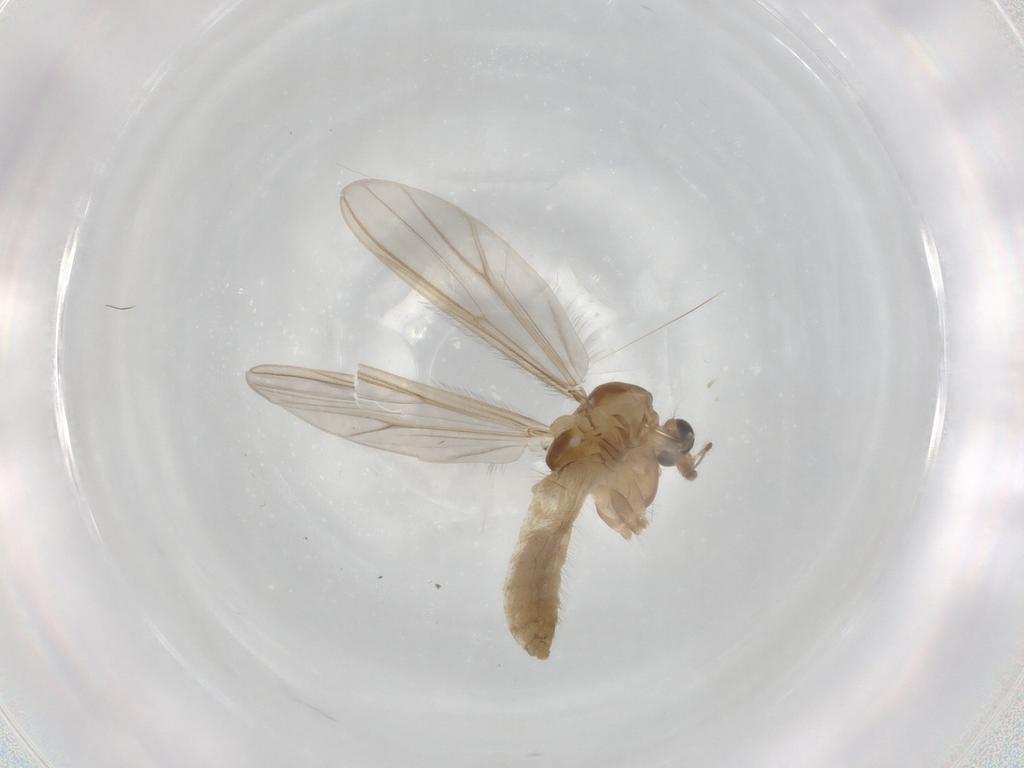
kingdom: Animalia
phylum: Arthropoda
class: Insecta
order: Diptera
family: Chironomidae
